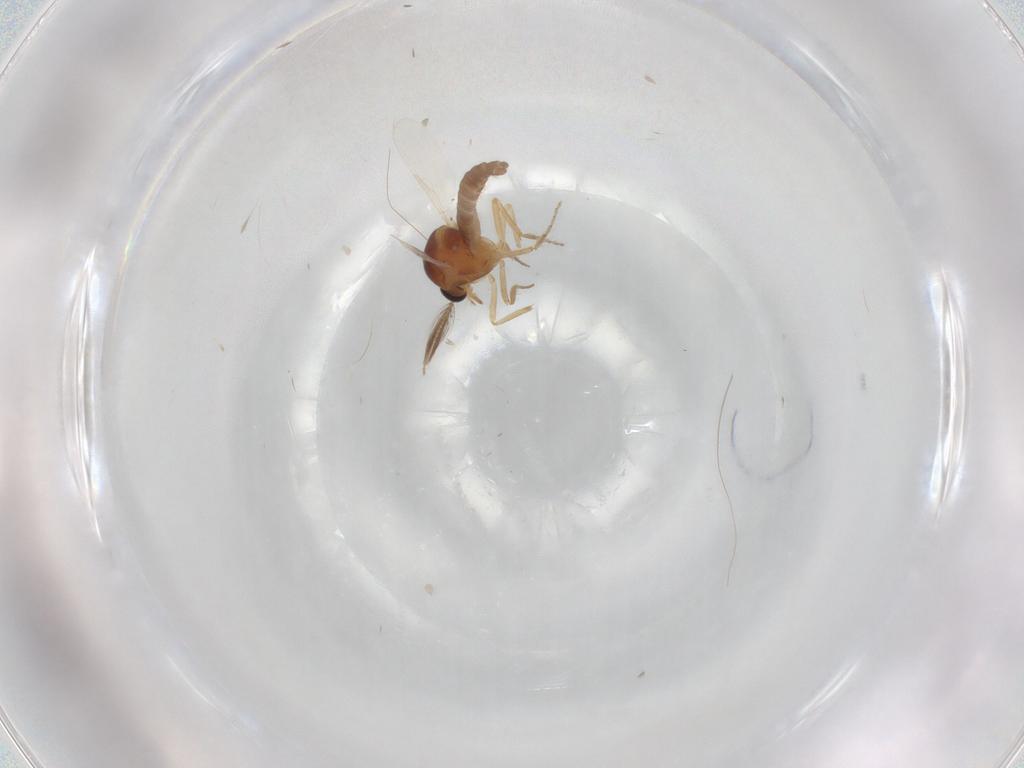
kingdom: Animalia
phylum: Arthropoda
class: Insecta
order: Diptera
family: Ceratopogonidae
